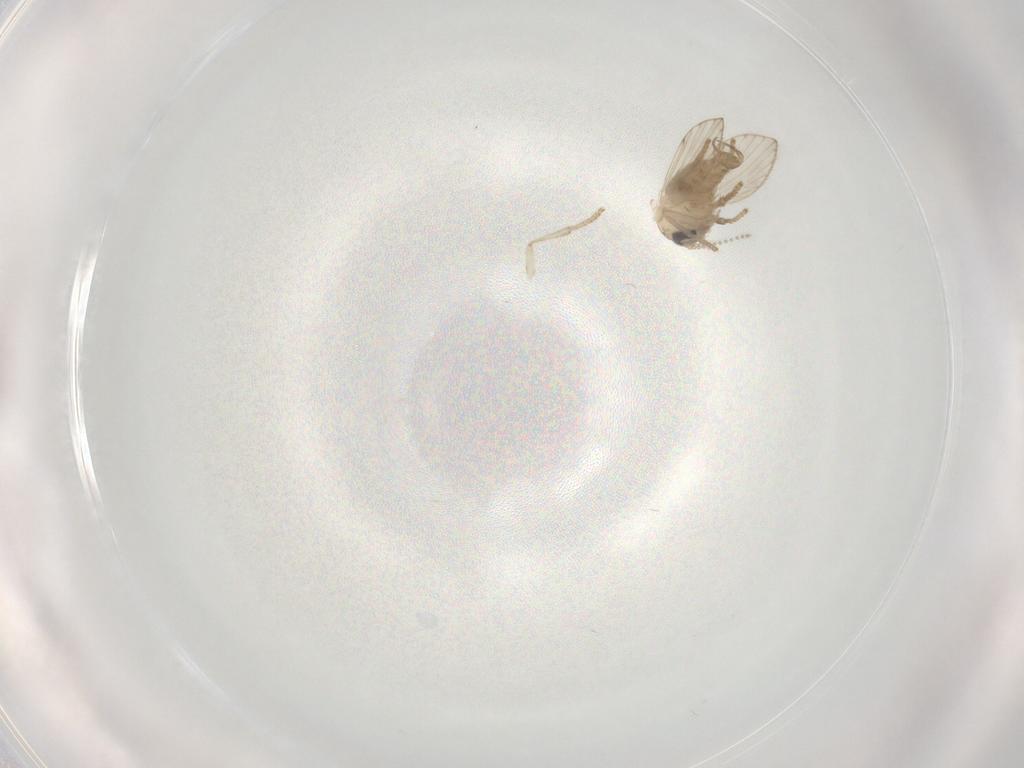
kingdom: Animalia
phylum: Arthropoda
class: Insecta
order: Diptera
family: Psychodidae
